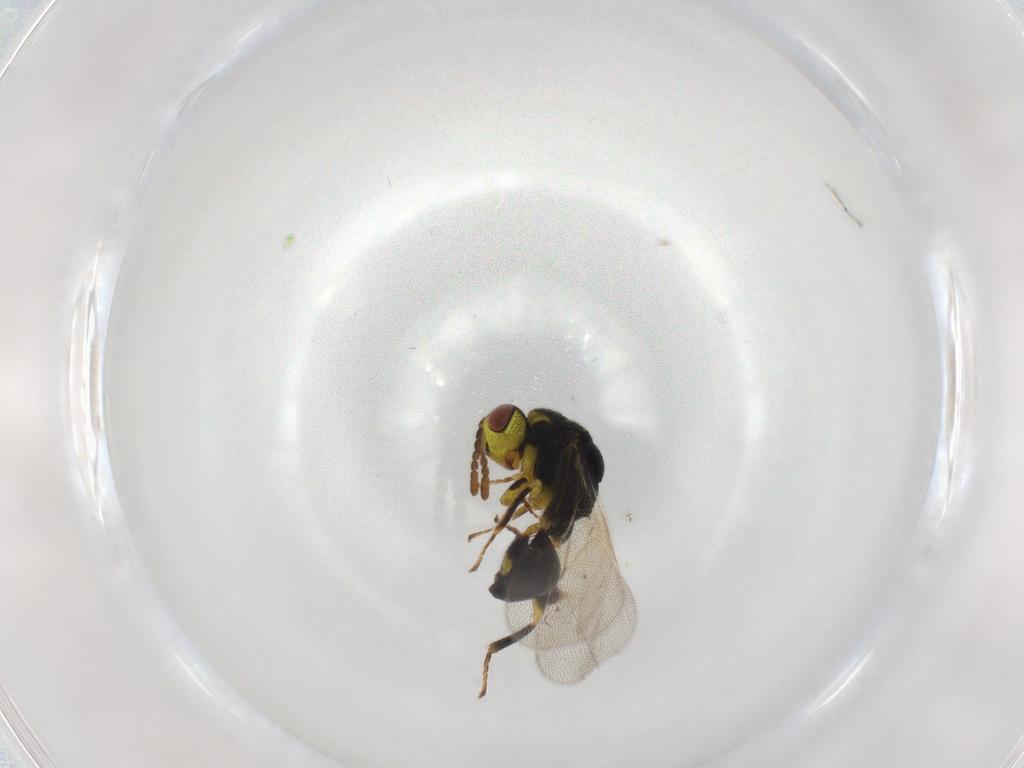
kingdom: Animalia
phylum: Arthropoda
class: Insecta
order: Hymenoptera
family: Eurytomidae
